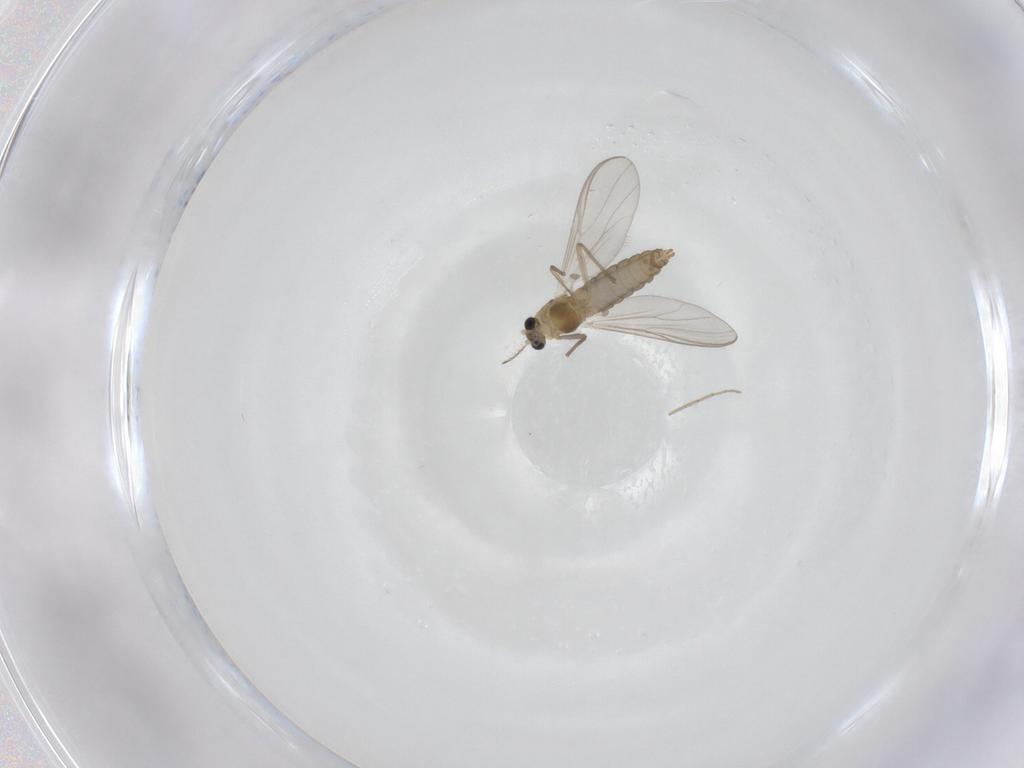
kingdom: Animalia
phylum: Arthropoda
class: Insecta
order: Diptera
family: Chironomidae
